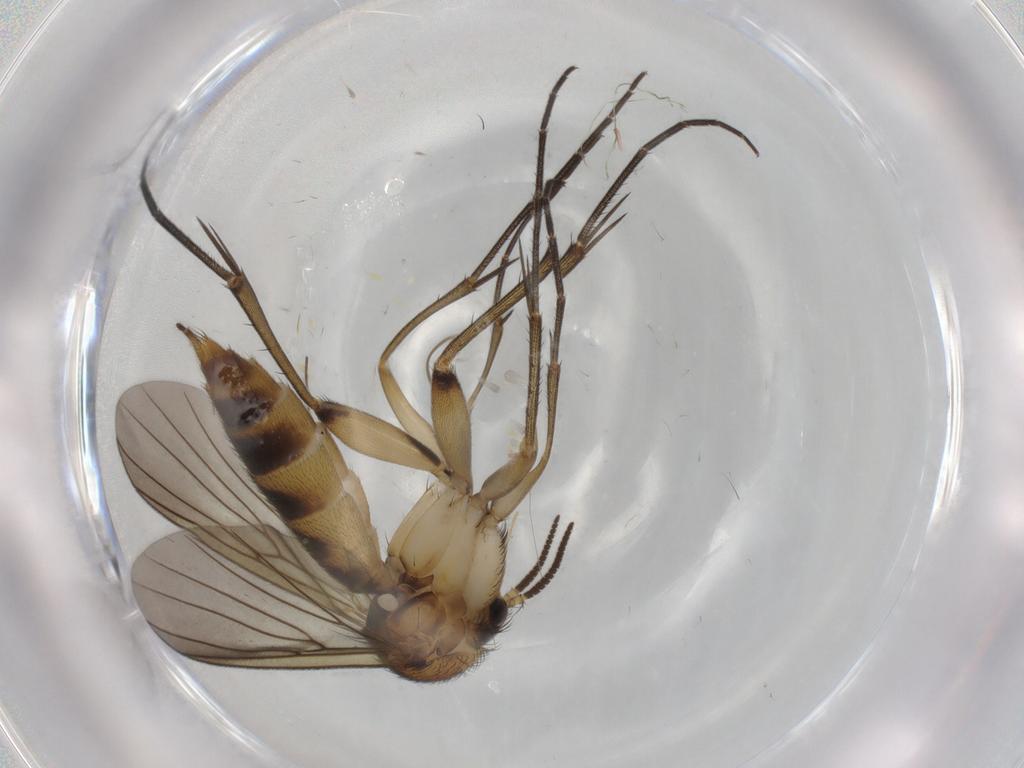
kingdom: Animalia
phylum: Arthropoda
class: Insecta
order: Diptera
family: Mycetophilidae
